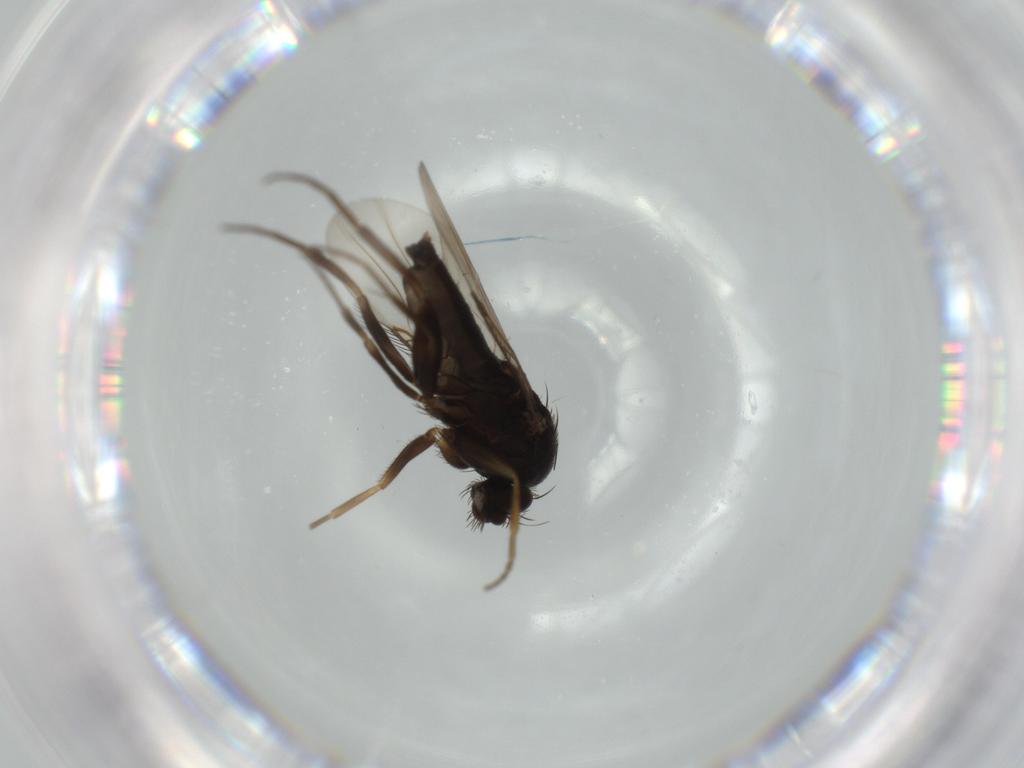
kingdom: Animalia
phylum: Arthropoda
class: Insecta
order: Diptera
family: Phoridae
